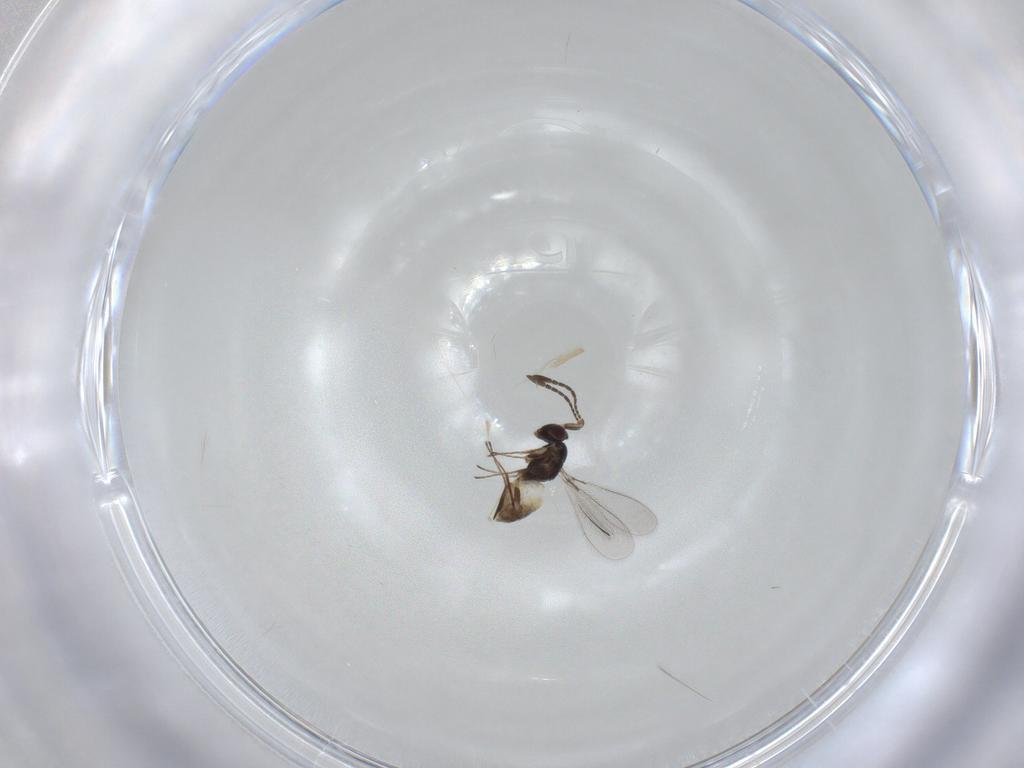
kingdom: Animalia
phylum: Arthropoda
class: Insecta
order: Hymenoptera
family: Mymaridae
